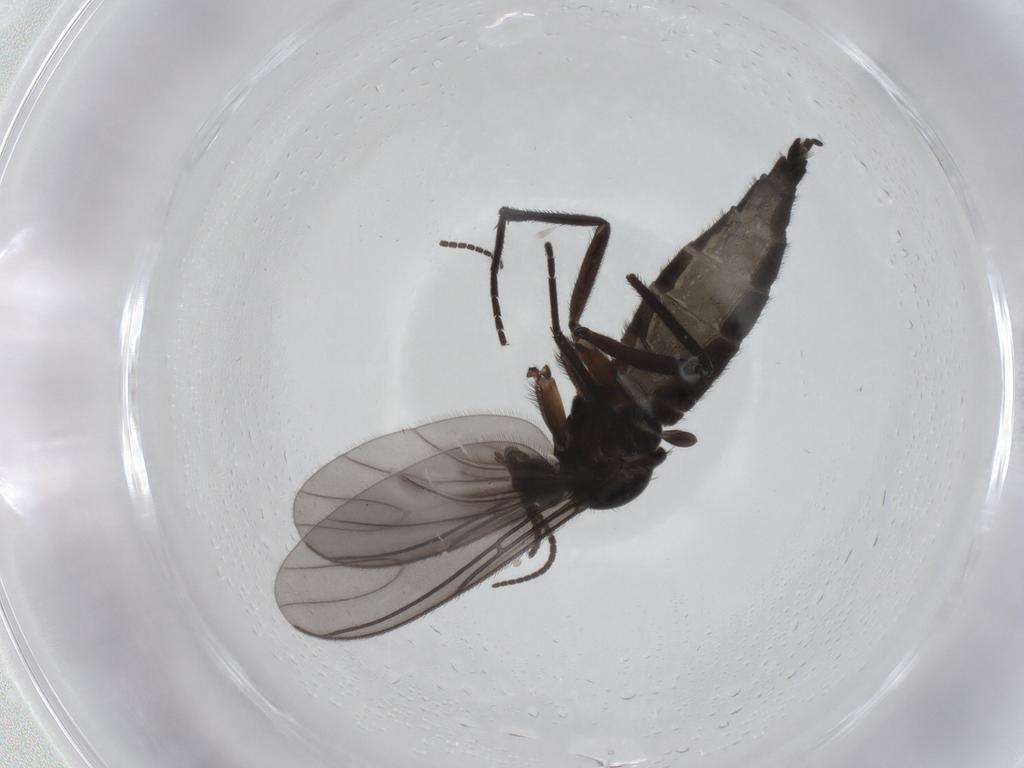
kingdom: Animalia
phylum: Arthropoda
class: Insecta
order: Diptera
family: Sciaridae
